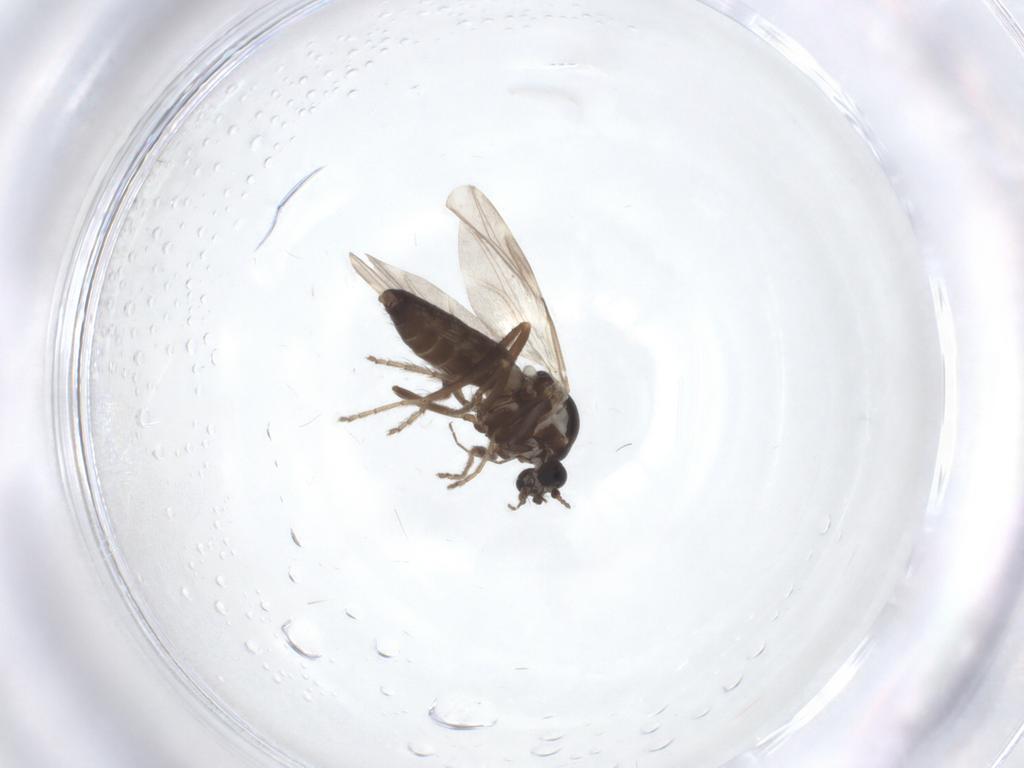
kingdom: Animalia
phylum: Arthropoda
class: Insecta
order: Diptera
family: Ceratopogonidae
